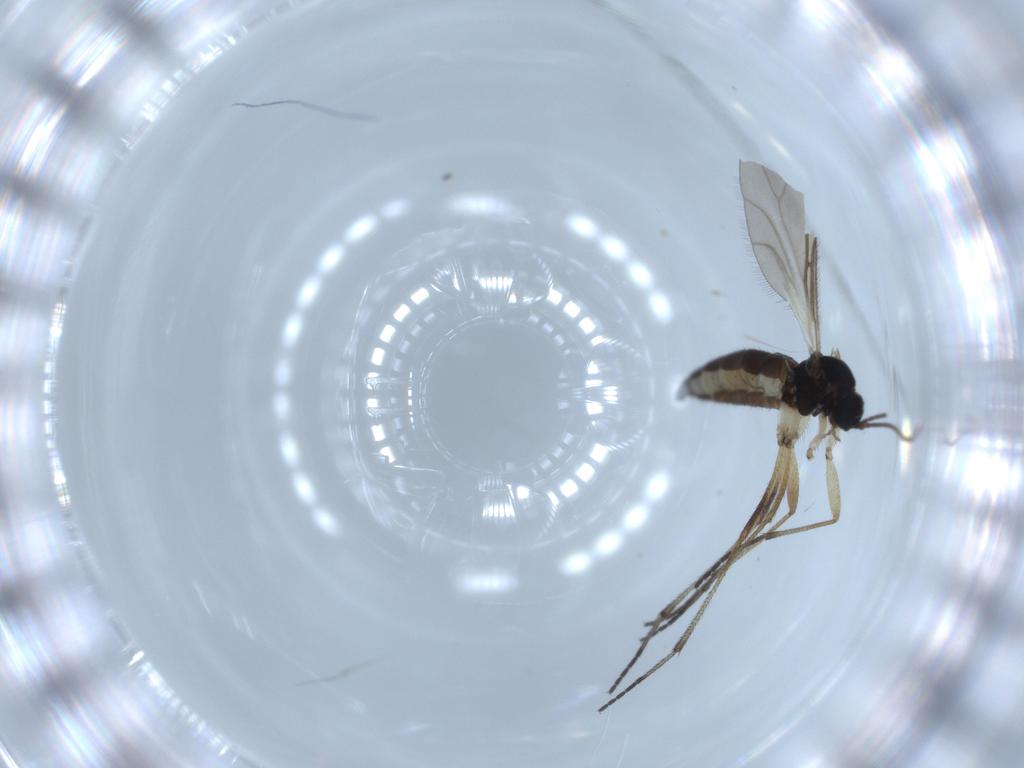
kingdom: Animalia
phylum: Arthropoda
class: Insecta
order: Diptera
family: Sciaridae
